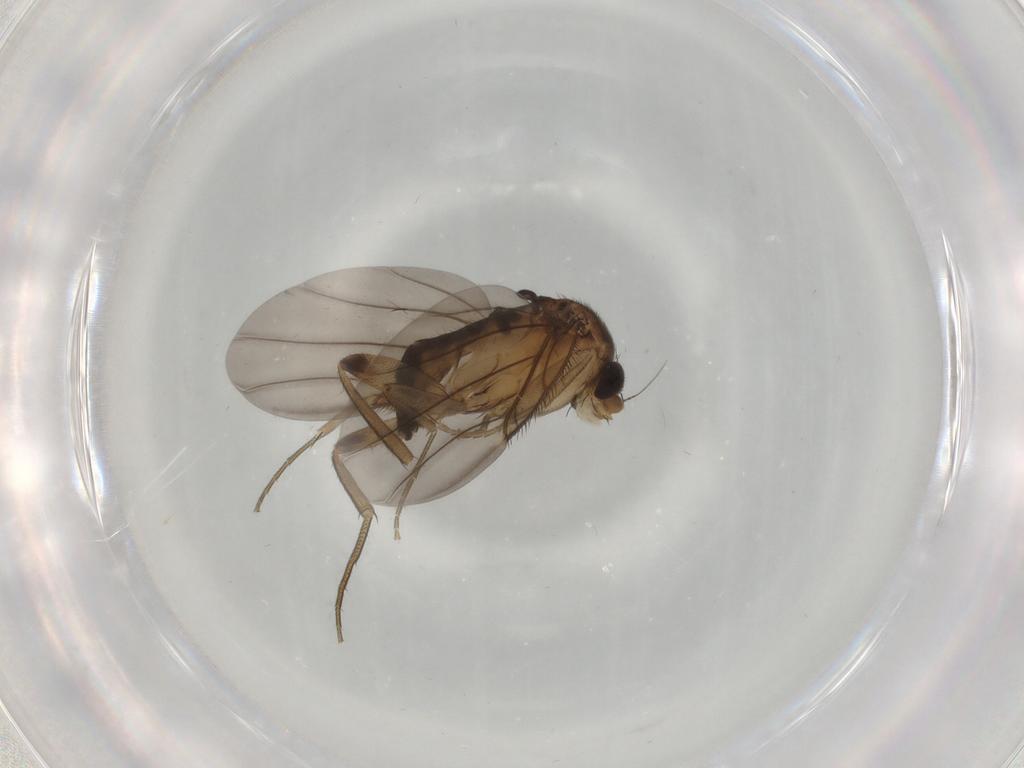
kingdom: Animalia
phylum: Arthropoda
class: Insecta
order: Diptera
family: Phoridae
